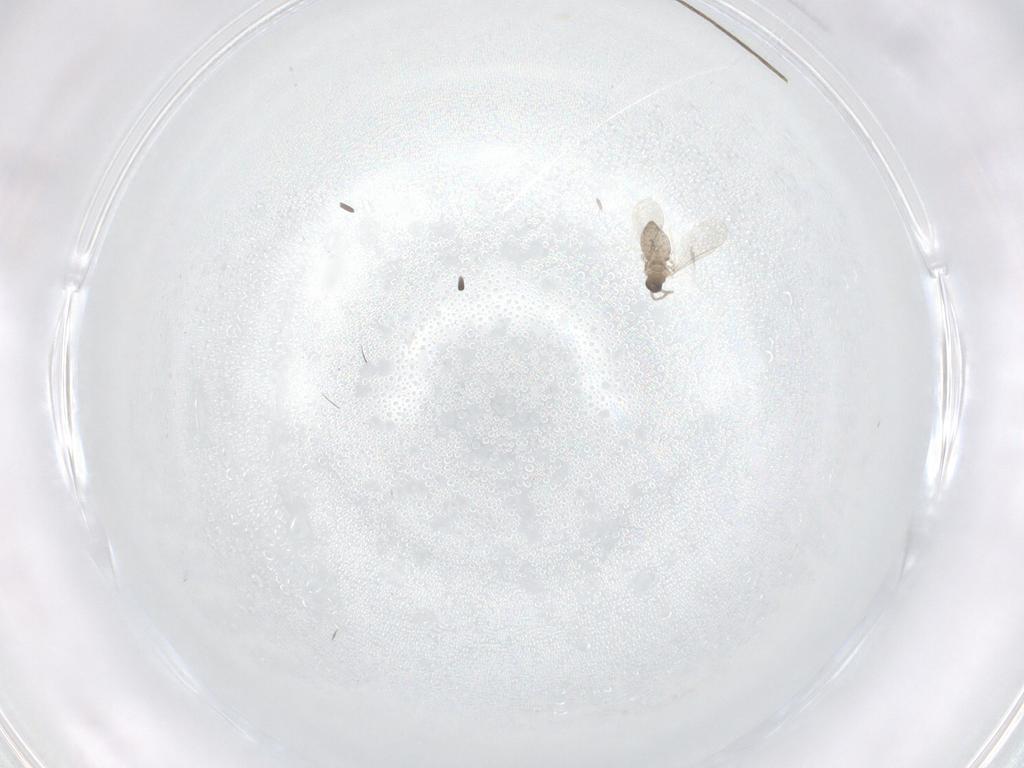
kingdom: Animalia
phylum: Arthropoda
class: Insecta
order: Diptera
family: Cecidomyiidae
